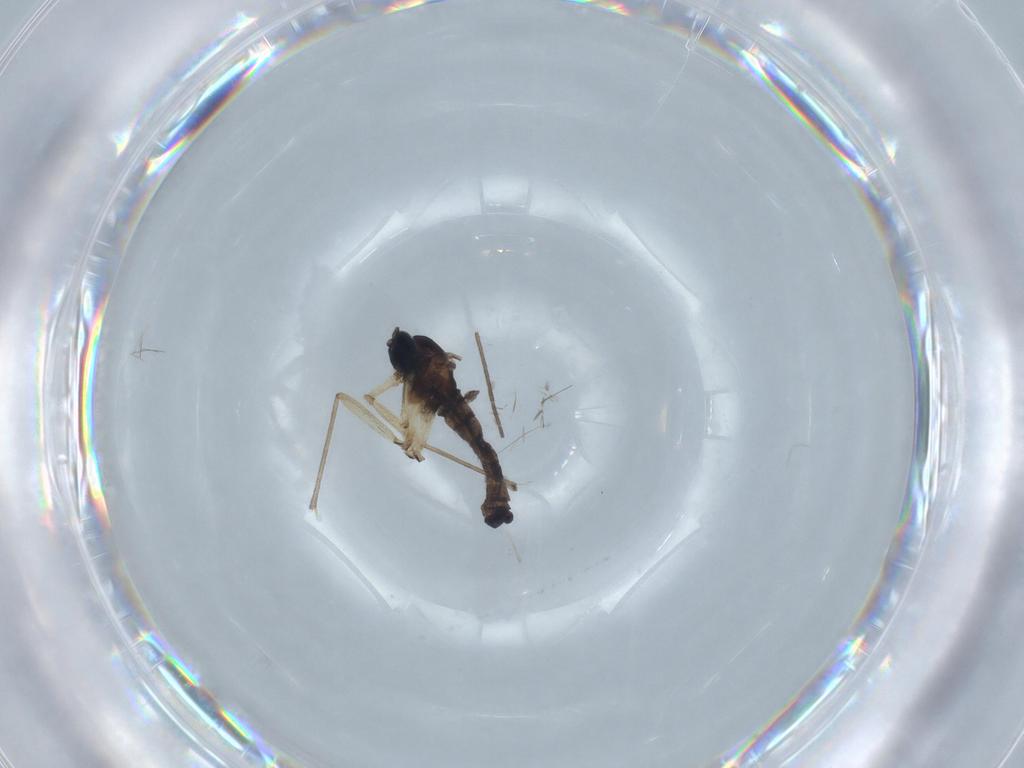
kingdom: Animalia
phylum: Arthropoda
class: Insecta
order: Diptera
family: Sciaridae
